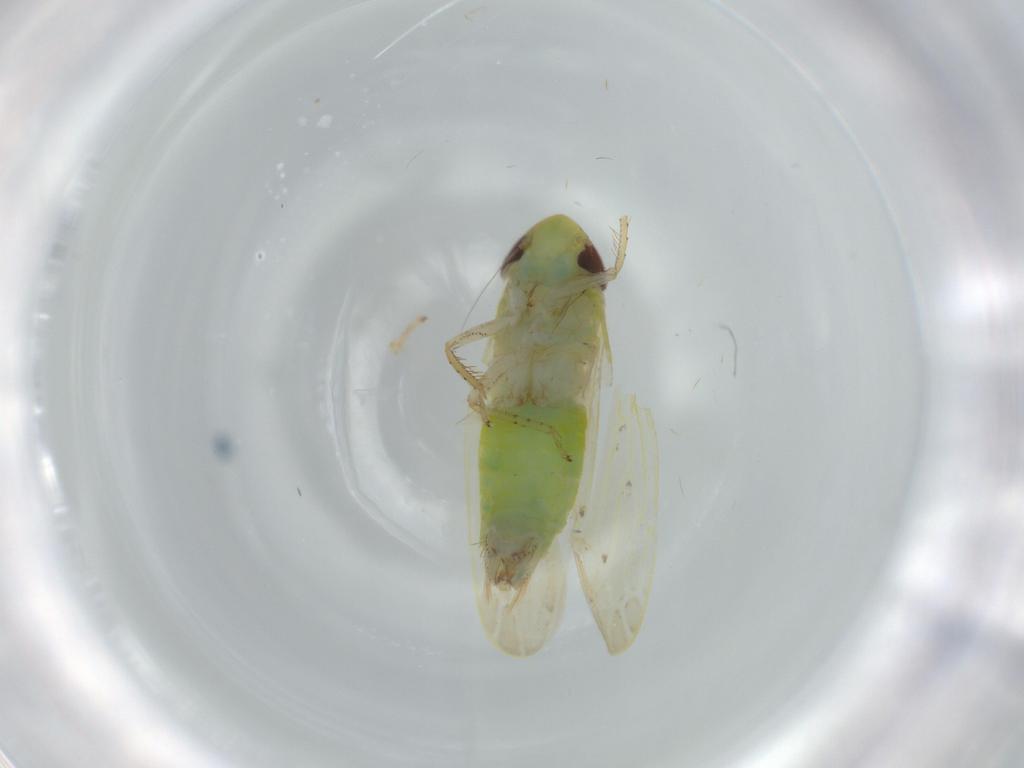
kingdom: Animalia
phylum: Arthropoda
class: Insecta
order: Hemiptera
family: Cicadellidae
